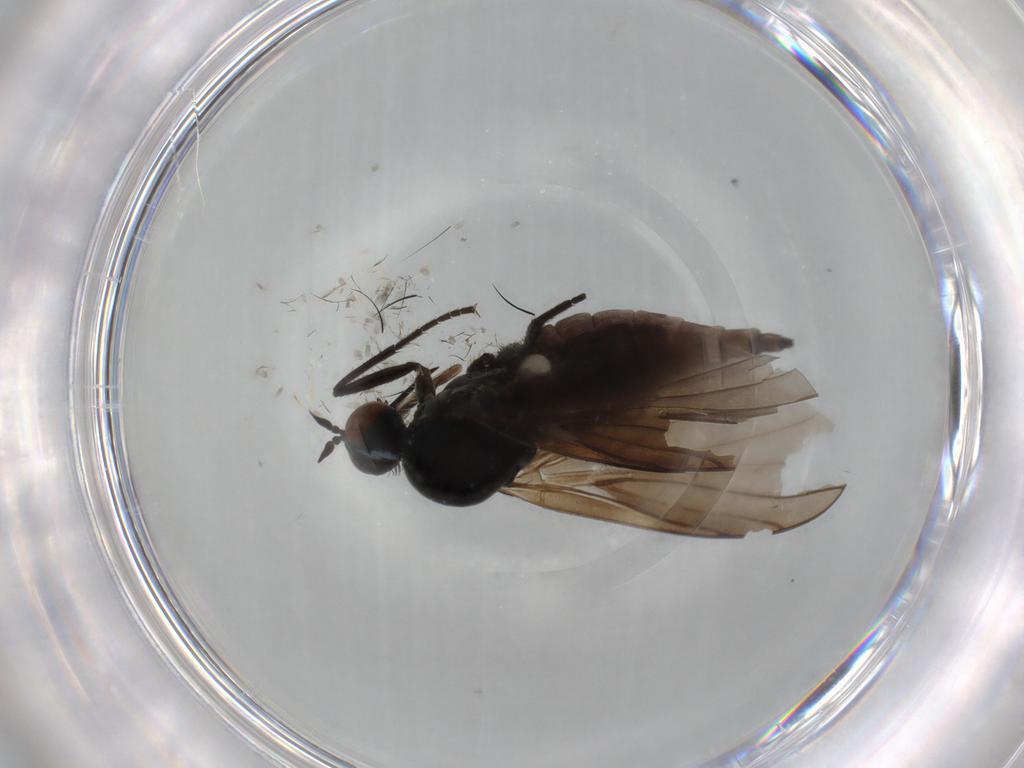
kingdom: Animalia
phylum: Arthropoda
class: Insecta
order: Diptera
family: Empididae
